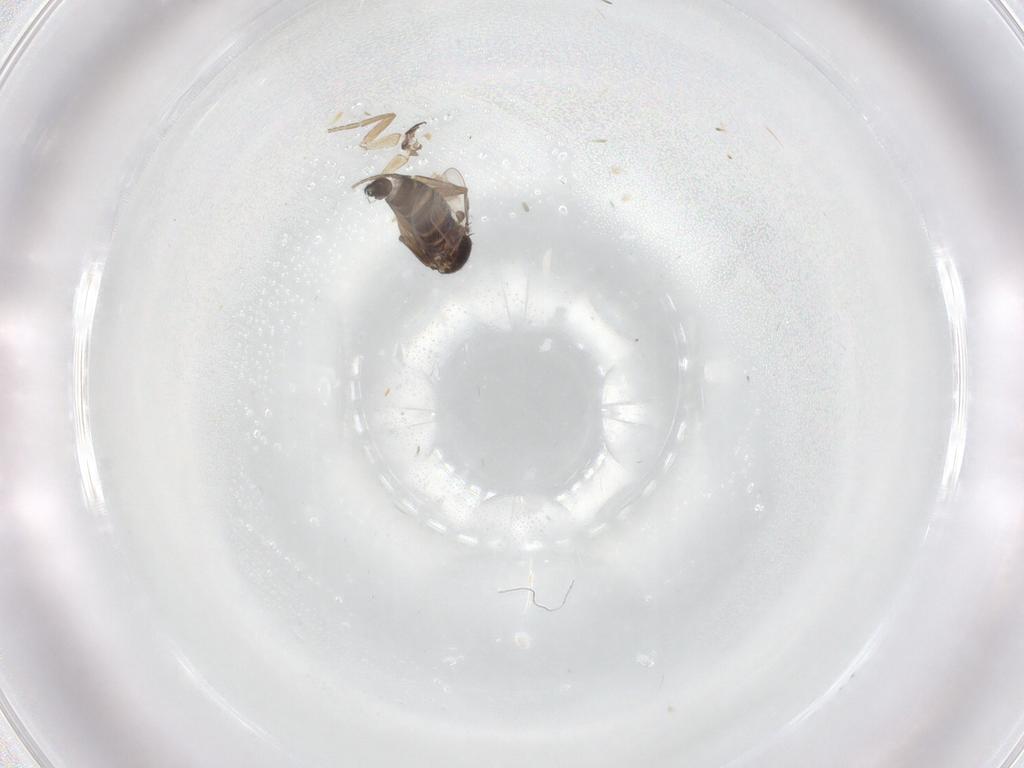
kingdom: Animalia
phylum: Arthropoda
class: Insecta
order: Diptera
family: Phoridae
